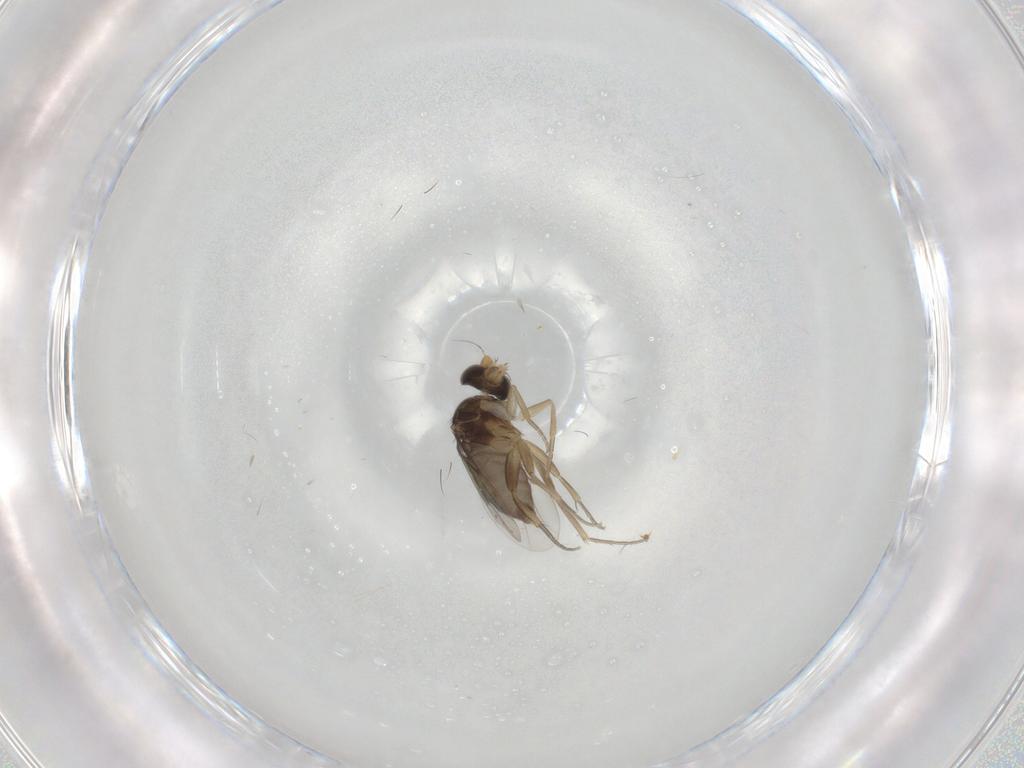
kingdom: Animalia
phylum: Arthropoda
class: Insecta
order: Diptera
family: Phoridae
